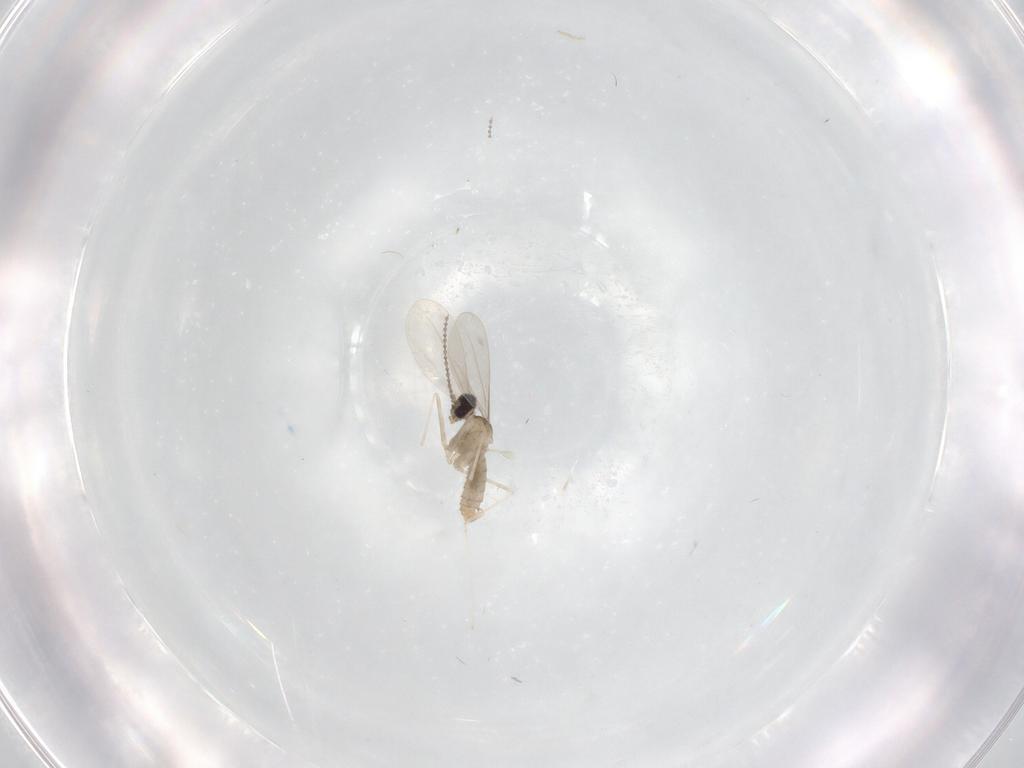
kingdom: Animalia
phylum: Arthropoda
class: Insecta
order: Diptera
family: Cecidomyiidae
